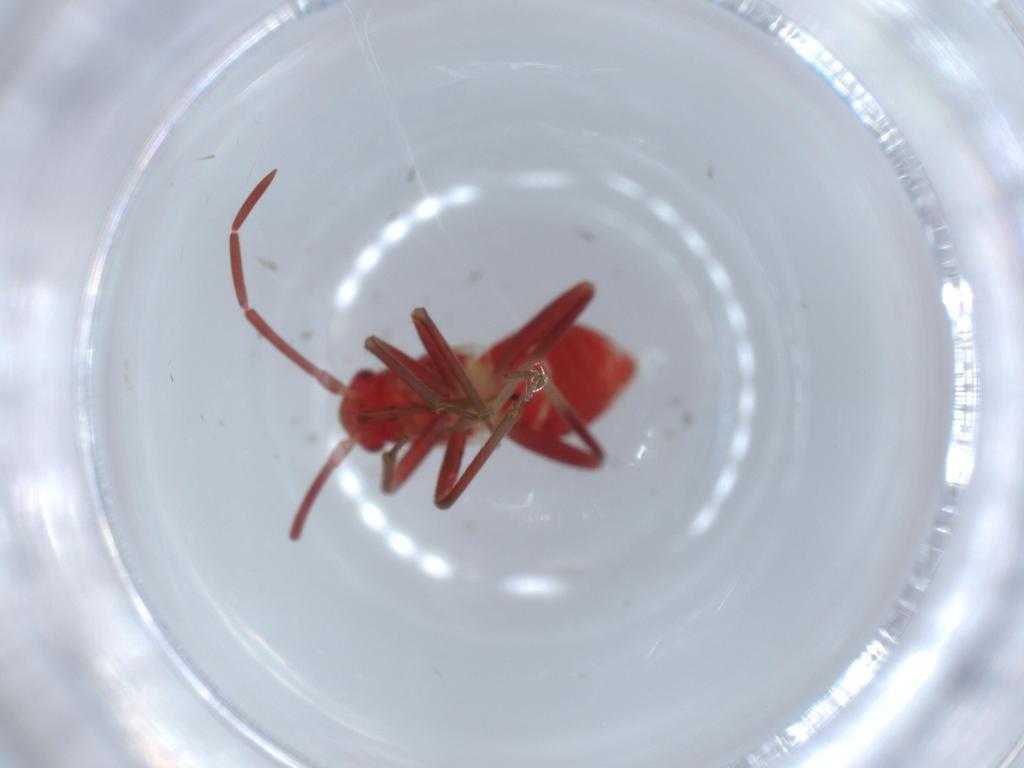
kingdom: Animalia
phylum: Arthropoda
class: Insecta
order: Hemiptera
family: Miridae
